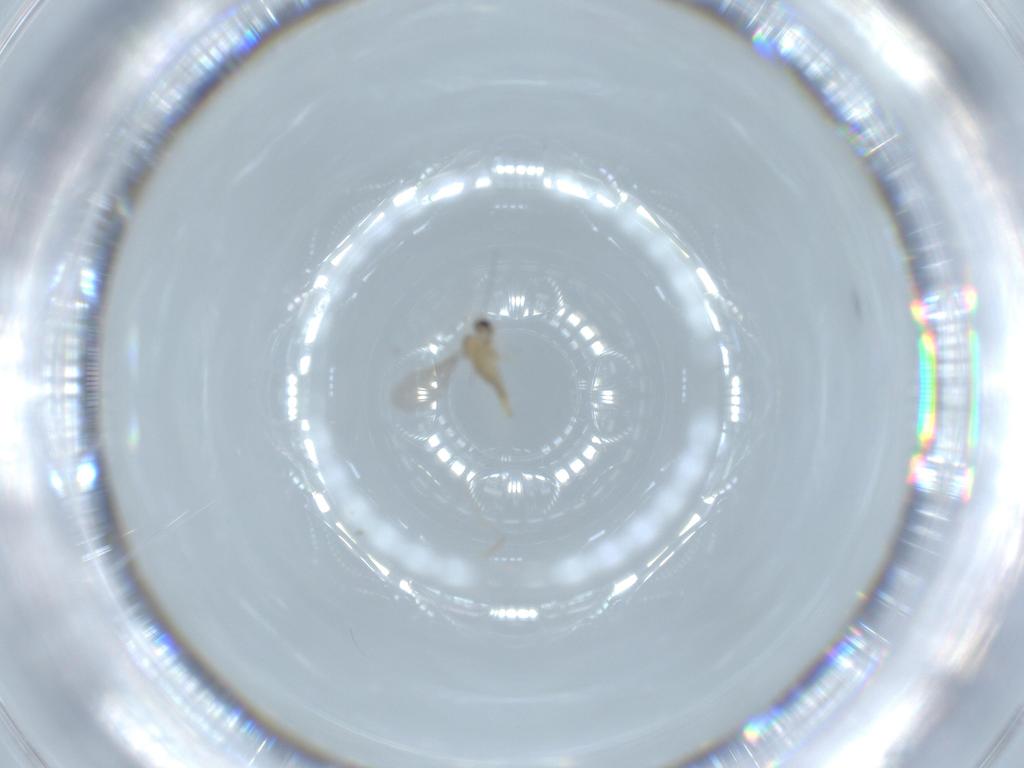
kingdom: Animalia
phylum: Arthropoda
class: Insecta
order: Diptera
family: Cecidomyiidae
